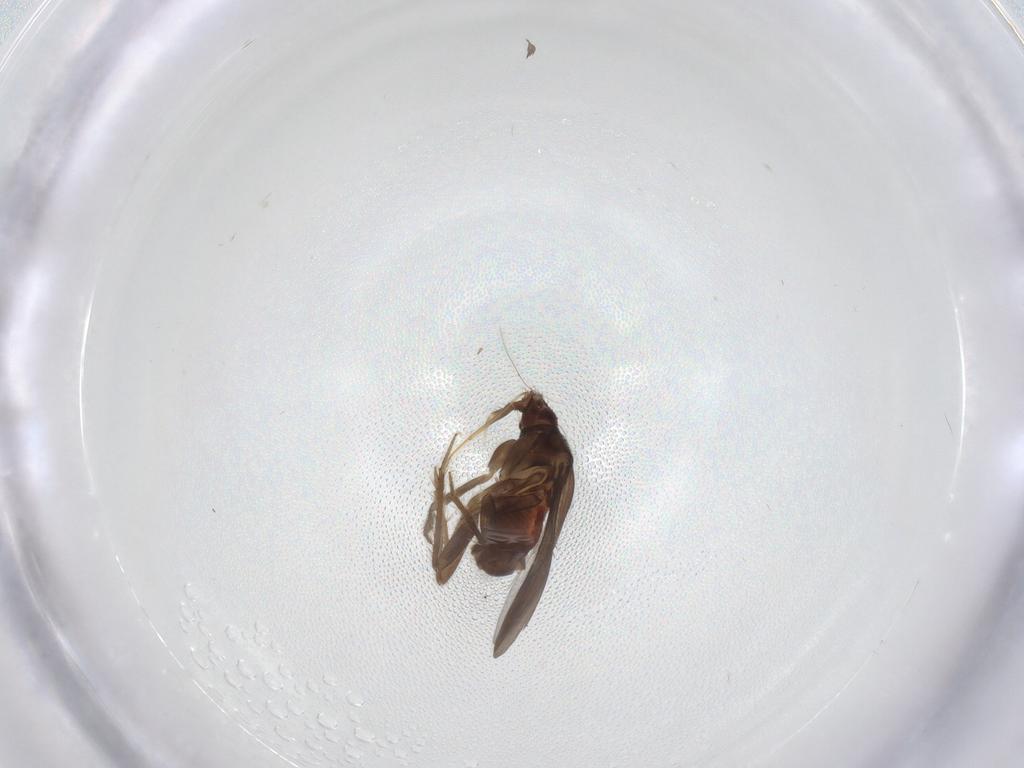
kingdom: Animalia
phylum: Arthropoda
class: Insecta
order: Hemiptera
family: Ceratocombidae
